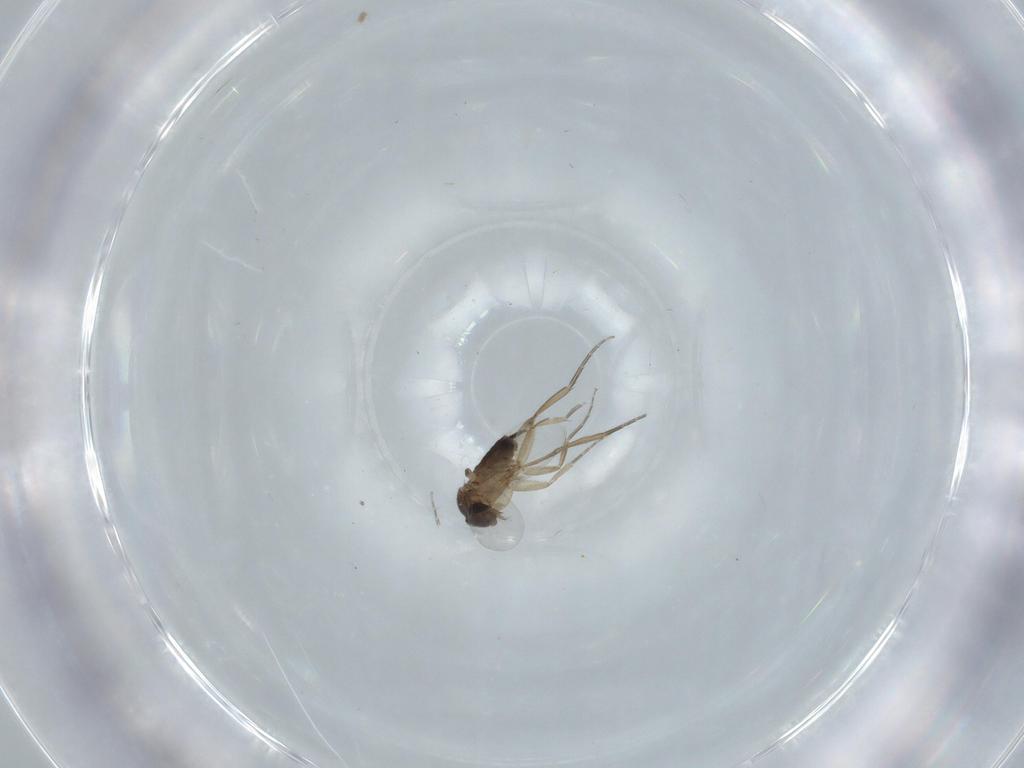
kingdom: Animalia
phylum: Arthropoda
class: Insecta
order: Diptera
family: Phoridae
